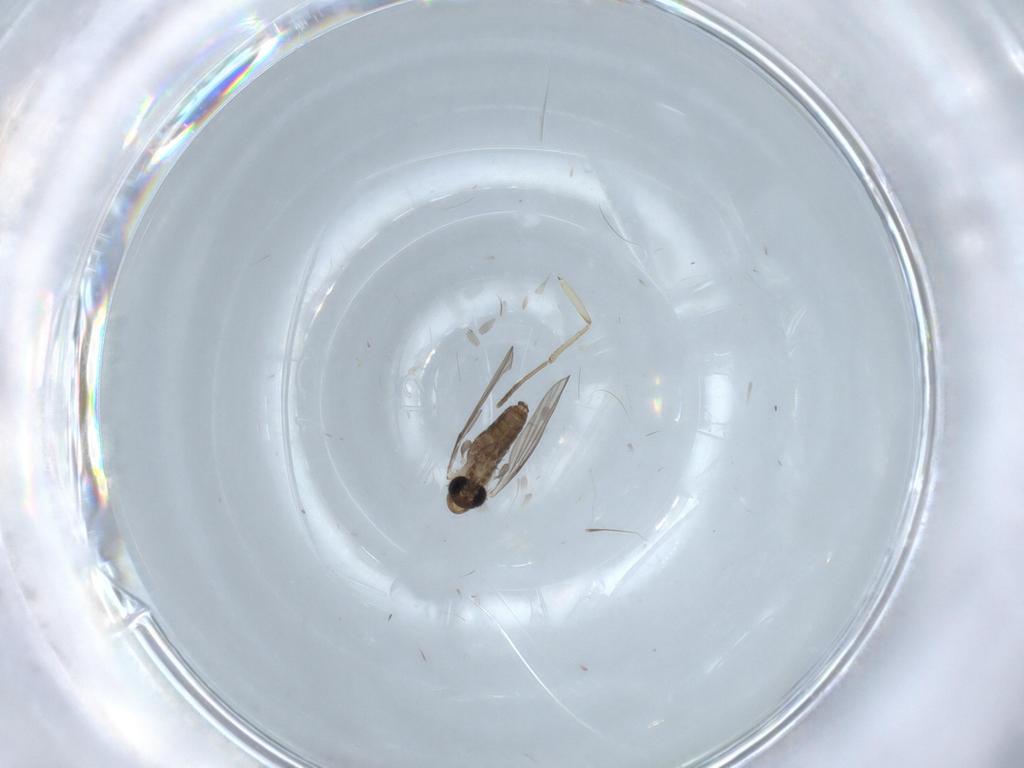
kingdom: Animalia
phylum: Arthropoda
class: Insecta
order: Diptera
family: Psychodidae
